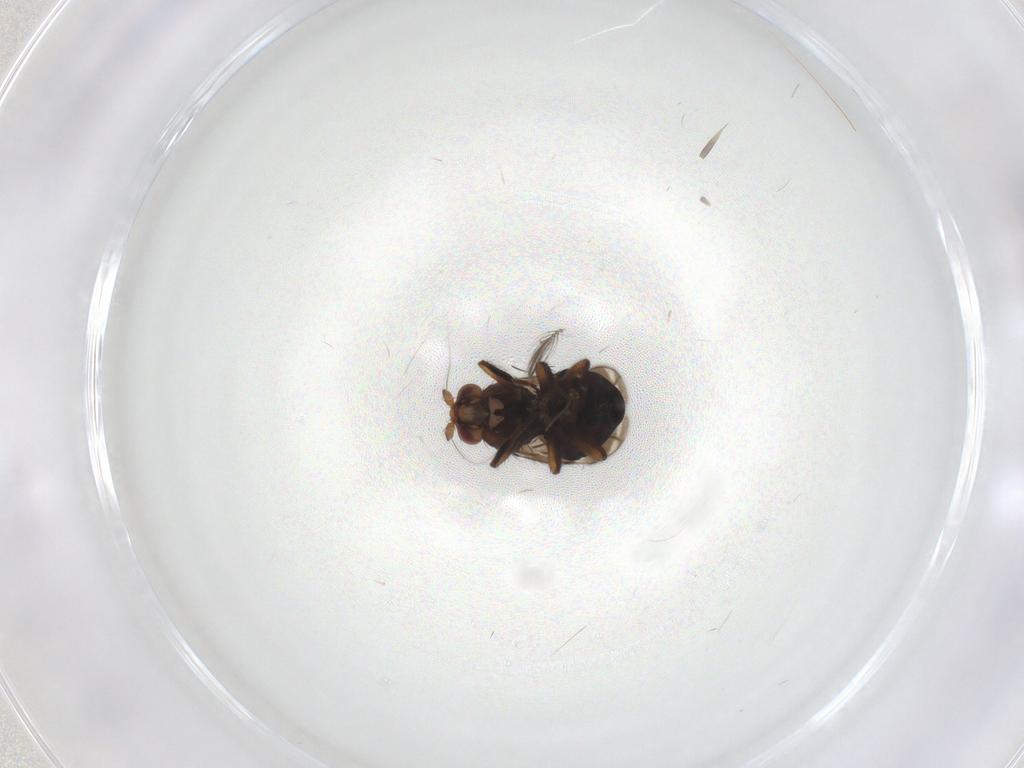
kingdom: Animalia
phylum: Arthropoda
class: Insecta
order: Diptera
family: Sphaeroceridae
